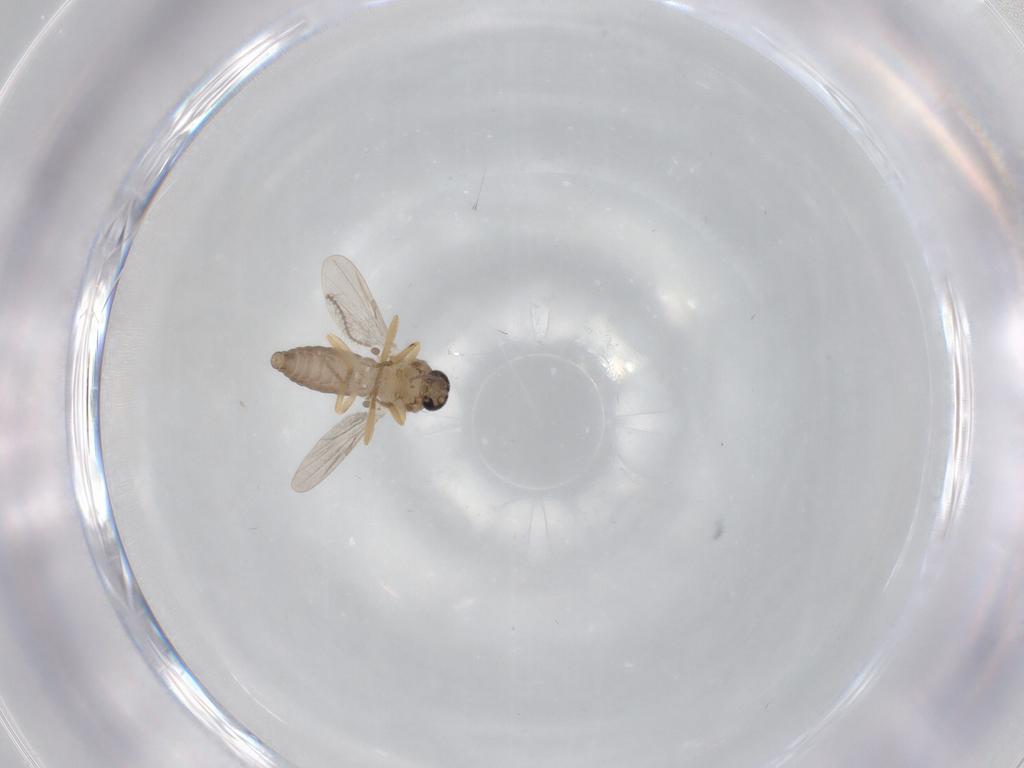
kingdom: Animalia
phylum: Arthropoda
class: Insecta
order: Diptera
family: Ceratopogonidae
